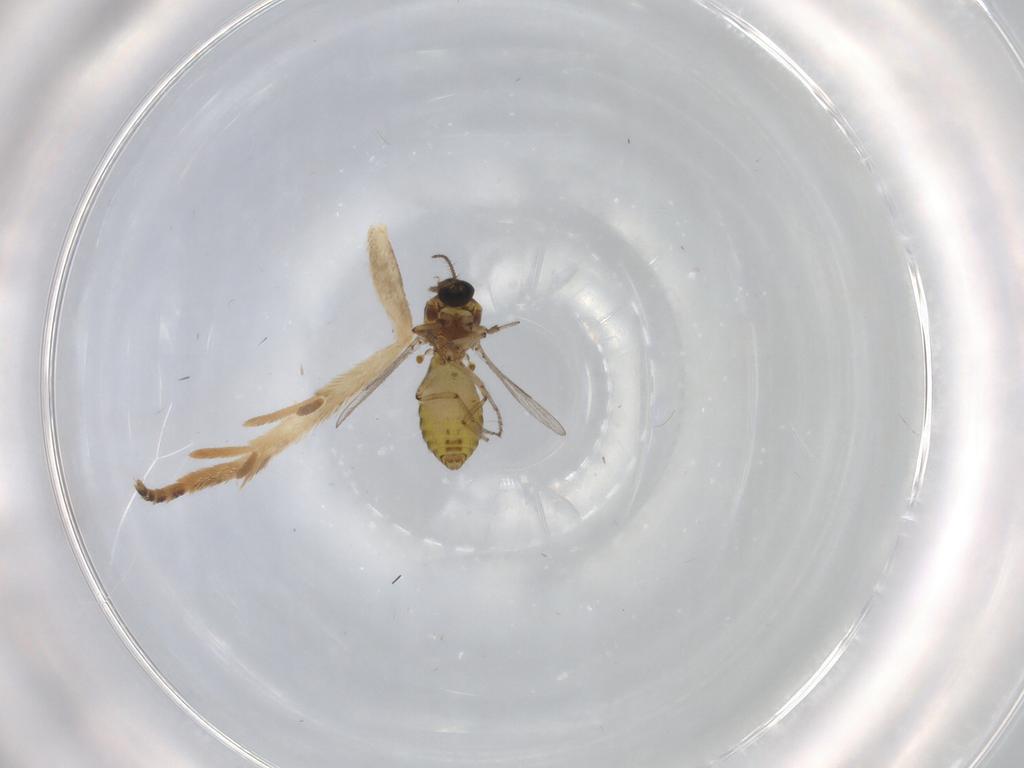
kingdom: Animalia
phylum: Arthropoda
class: Insecta
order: Diptera
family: Ceratopogonidae
